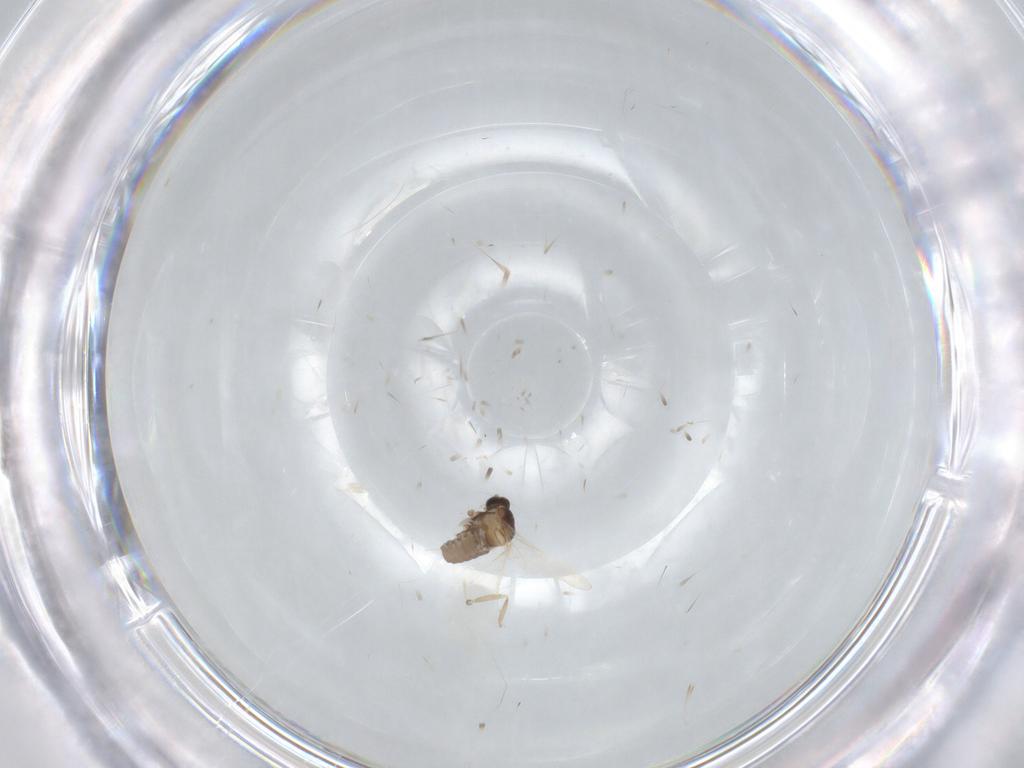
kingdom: Animalia
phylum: Arthropoda
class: Insecta
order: Diptera
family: Cecidomyiidae
